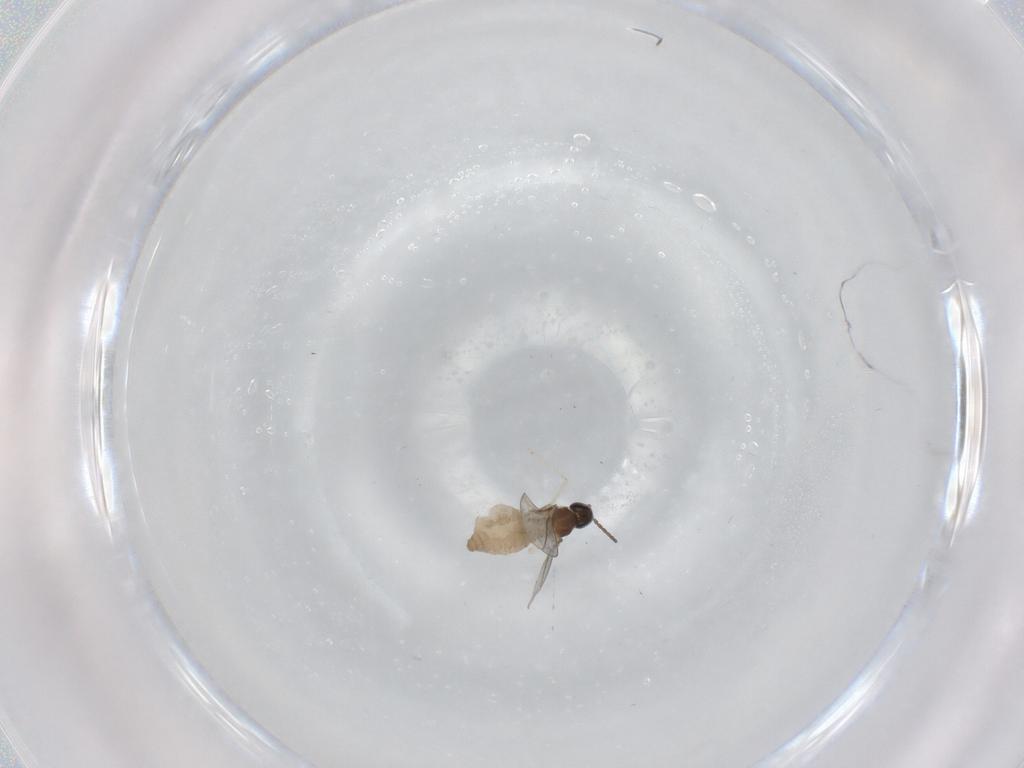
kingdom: Animalia
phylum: Arthropoda
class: Insecta
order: Diptera
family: Cecidomyiidae
